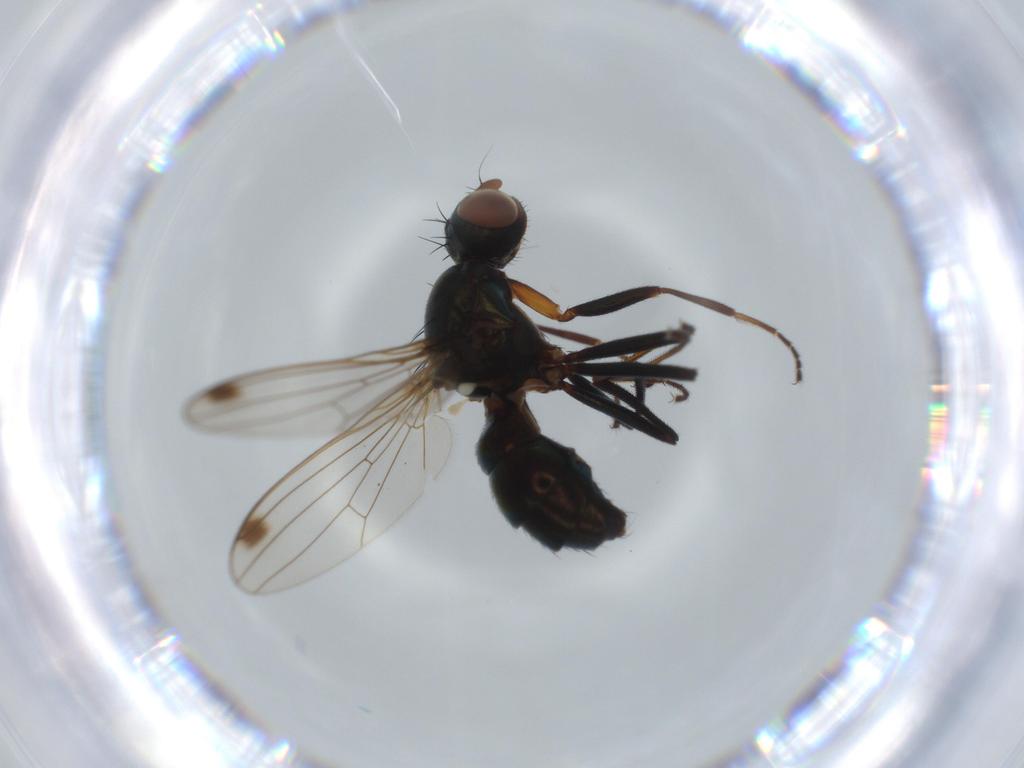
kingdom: Animalia
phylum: Arthropoda
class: Insecta
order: Diptera
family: Sepsidae
